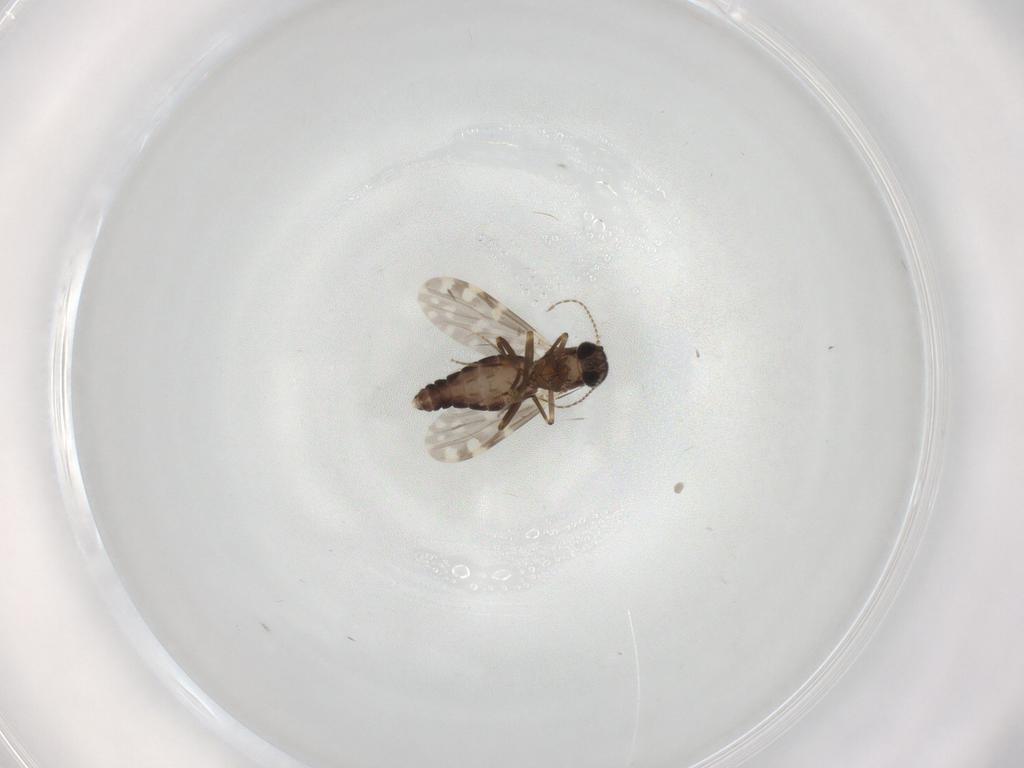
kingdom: Animalia
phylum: Arthropoda
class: Insecta
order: Diptera
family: Ceratopogonidae
